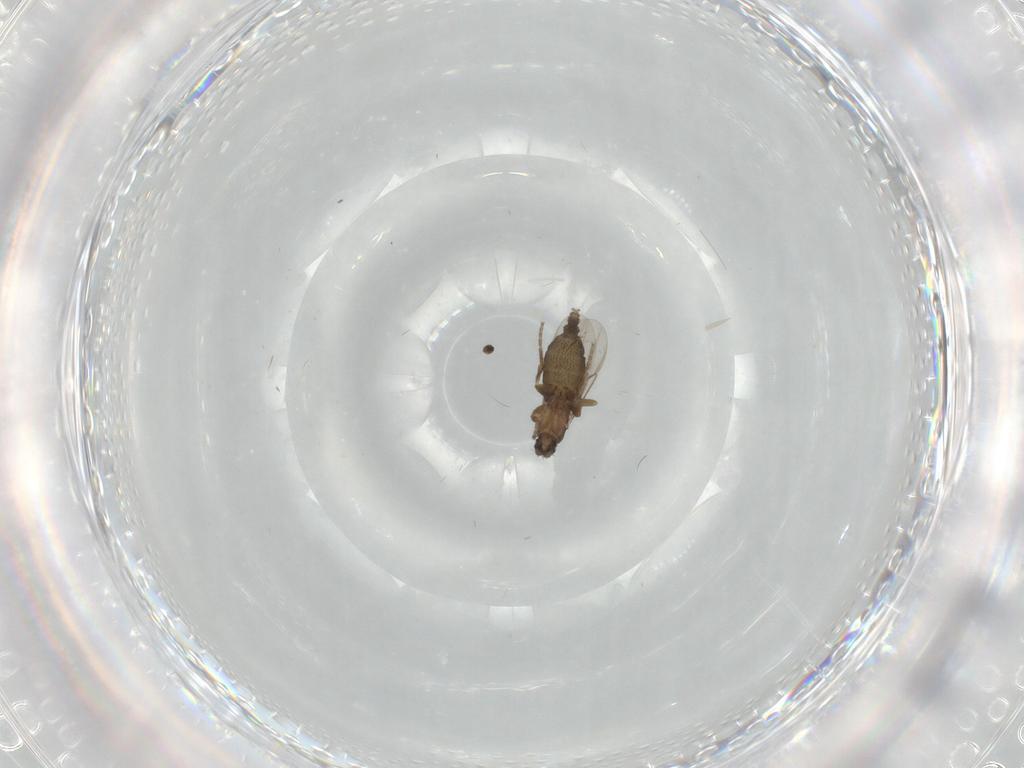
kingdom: Animalia
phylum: Arthropoda
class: Insecta
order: Diptera
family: Phoridae
